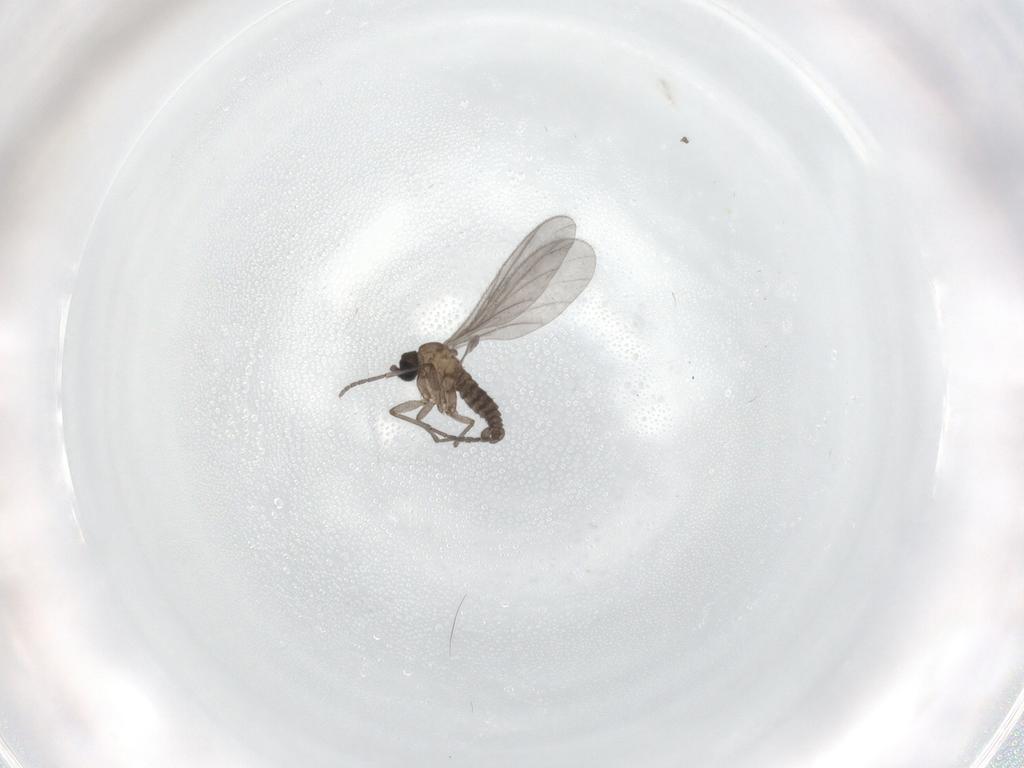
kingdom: Animalia
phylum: Arthropoda
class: Insecta
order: Diptera
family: Sciaridae
